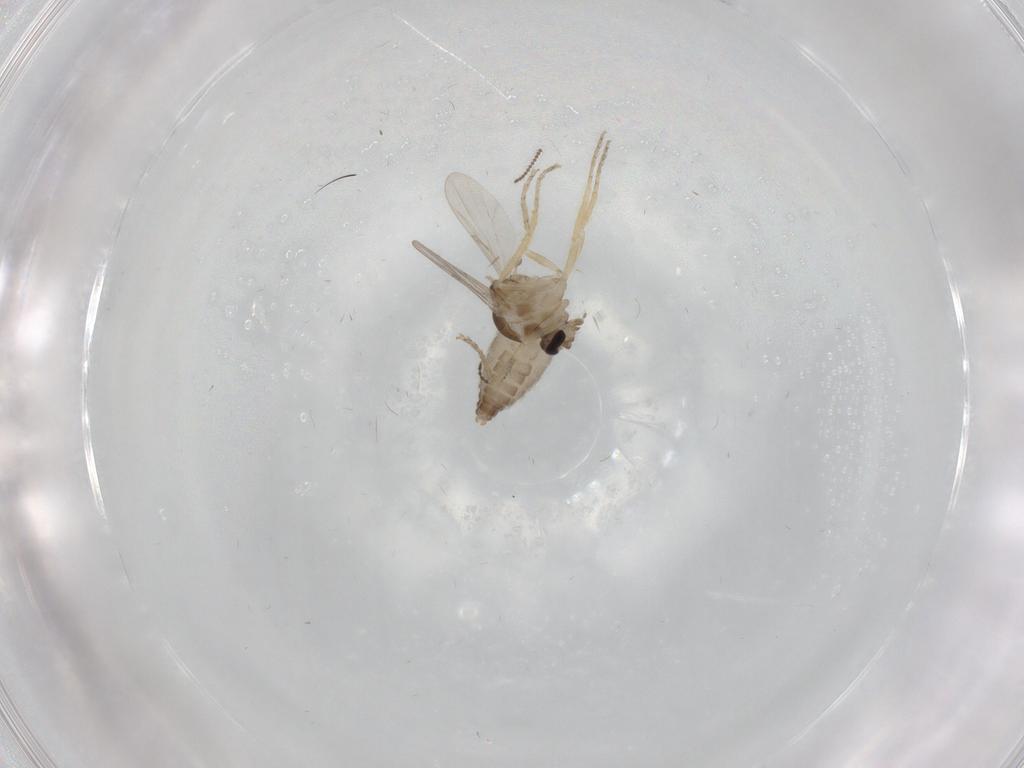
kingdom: Animalia
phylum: Arthropoda
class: Insecta
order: Diptera
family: Ceratopogonidae
